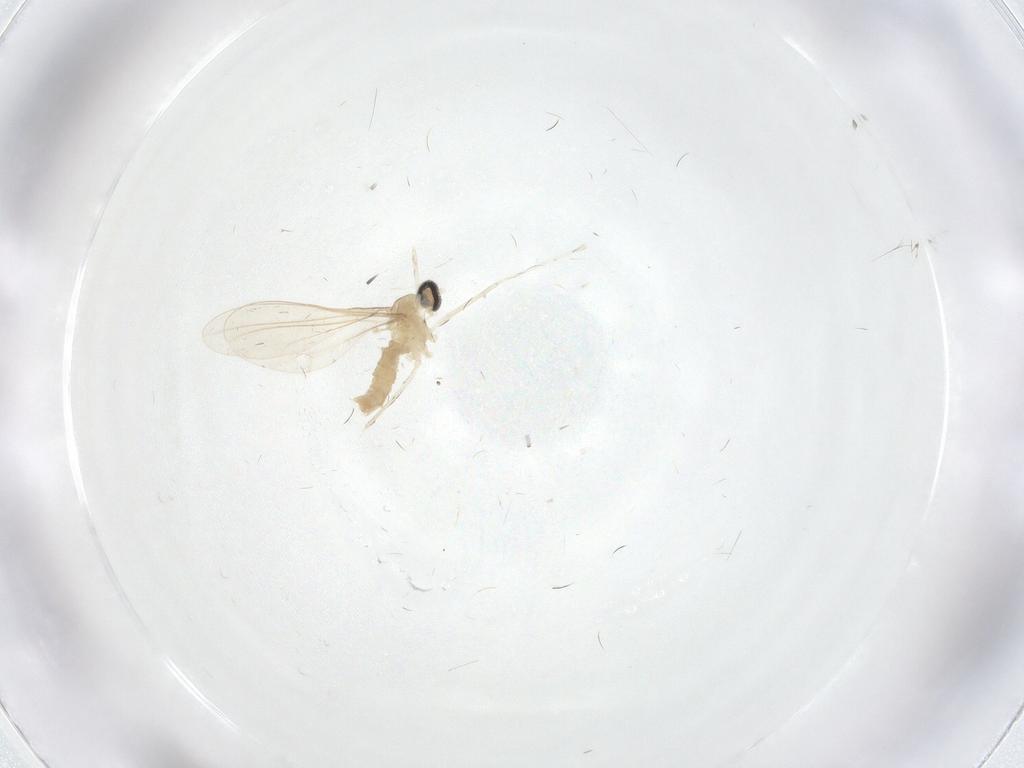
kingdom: Animalia
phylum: Arthropoda
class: Insecta
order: Diptera
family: Cecidomyiidae
